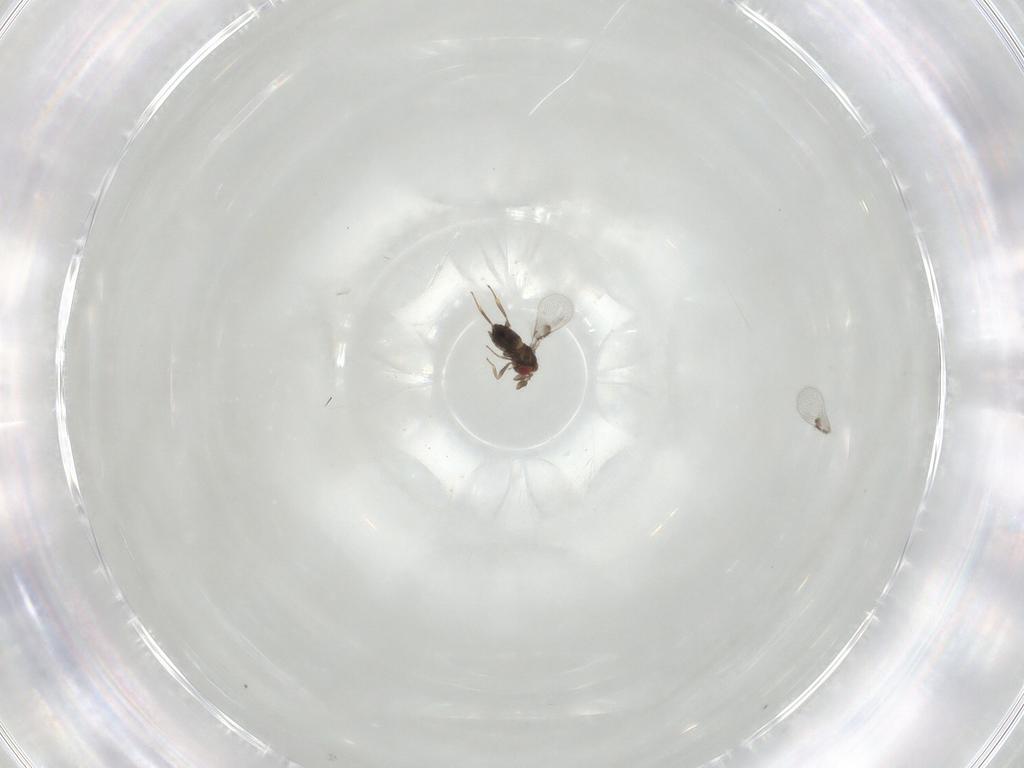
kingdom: Animalia
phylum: Arthropoda
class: Insecta
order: Hymenoptera
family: Trichogrammatidae
